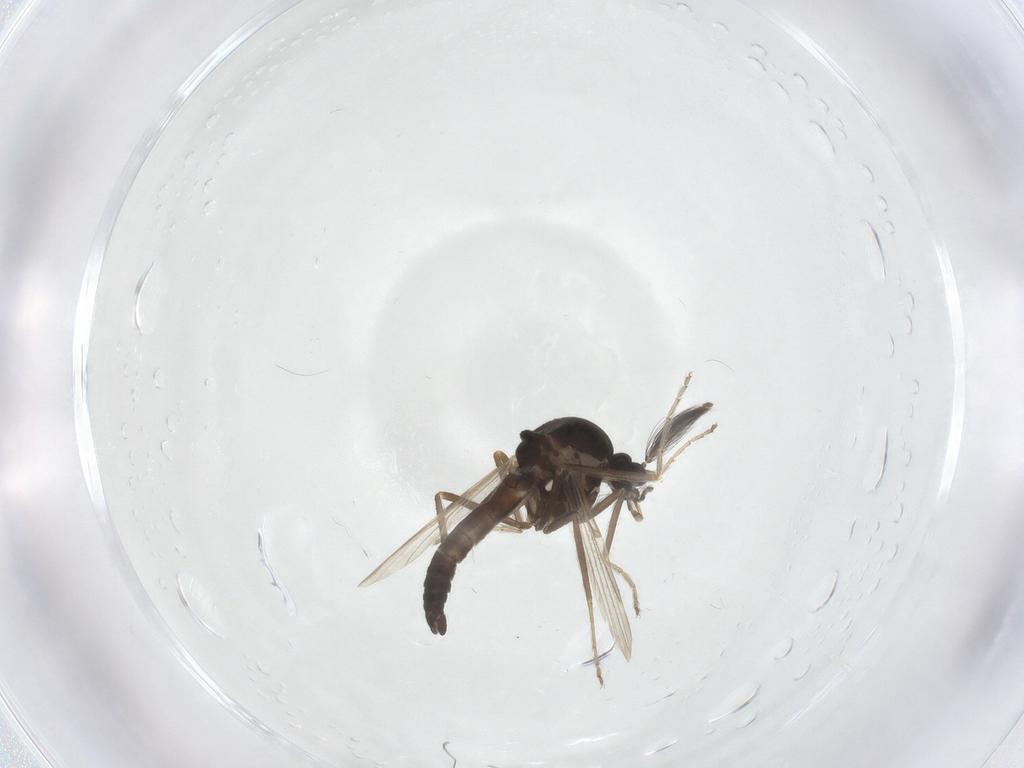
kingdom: Animalia
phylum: Arthropoda
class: Insecta
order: Diptera
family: Ceratopogonidae
